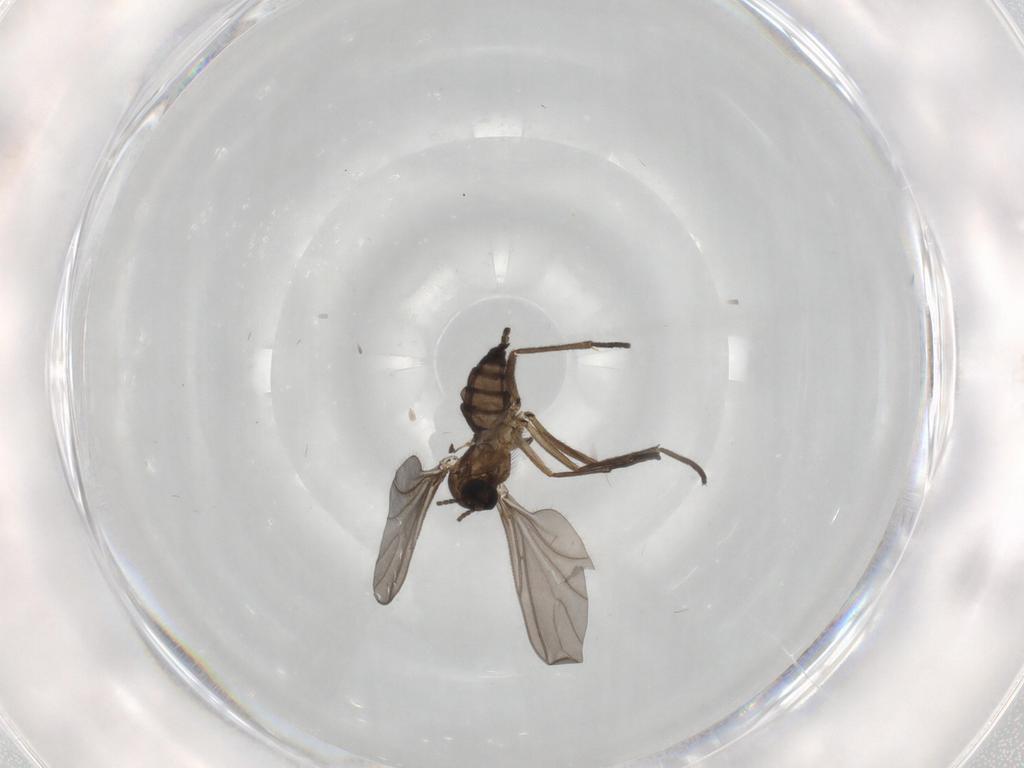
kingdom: Animalia
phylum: Arthropoda
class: Insecta
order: Diptera
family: Sciaridae
